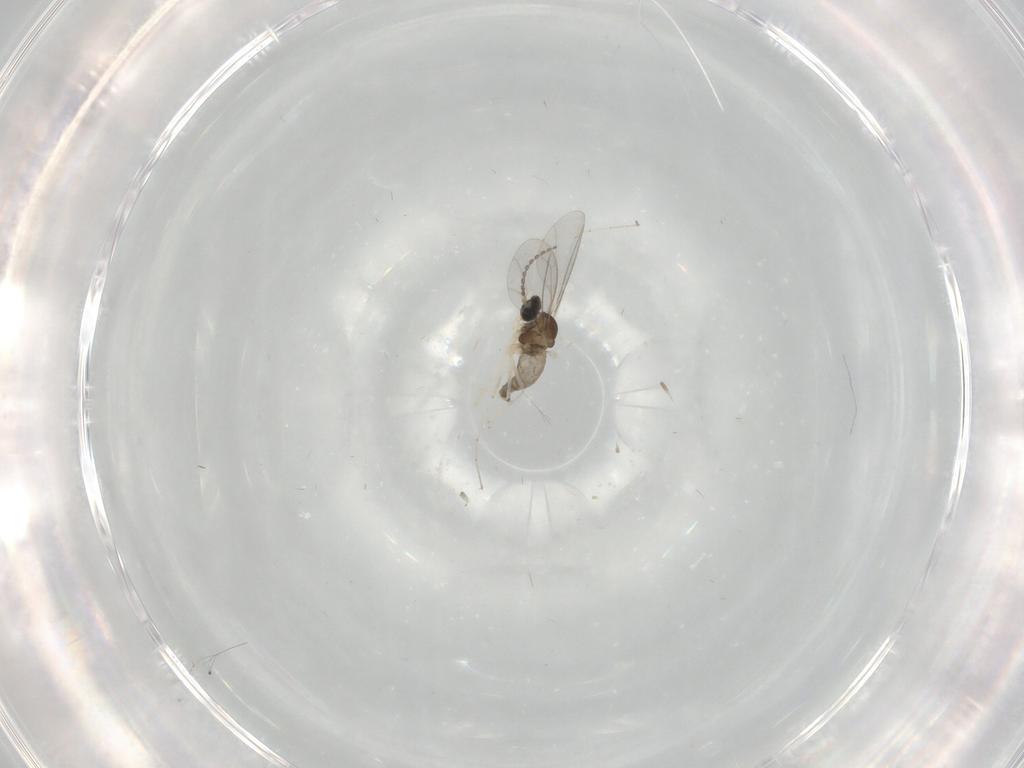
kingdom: Animalia
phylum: Arthropoda
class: Insecta
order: Diptera
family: Cecidomyiidae
